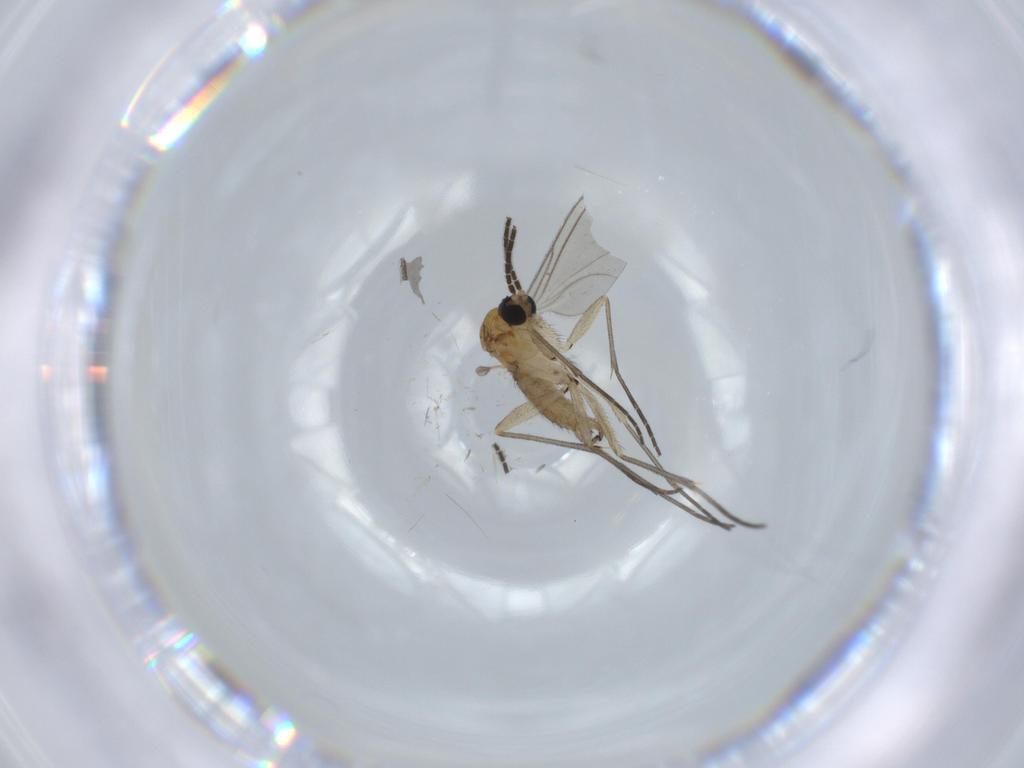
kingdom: Animalia
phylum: Arthropoda
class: Insecta
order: Diptera
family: Sciaridae
